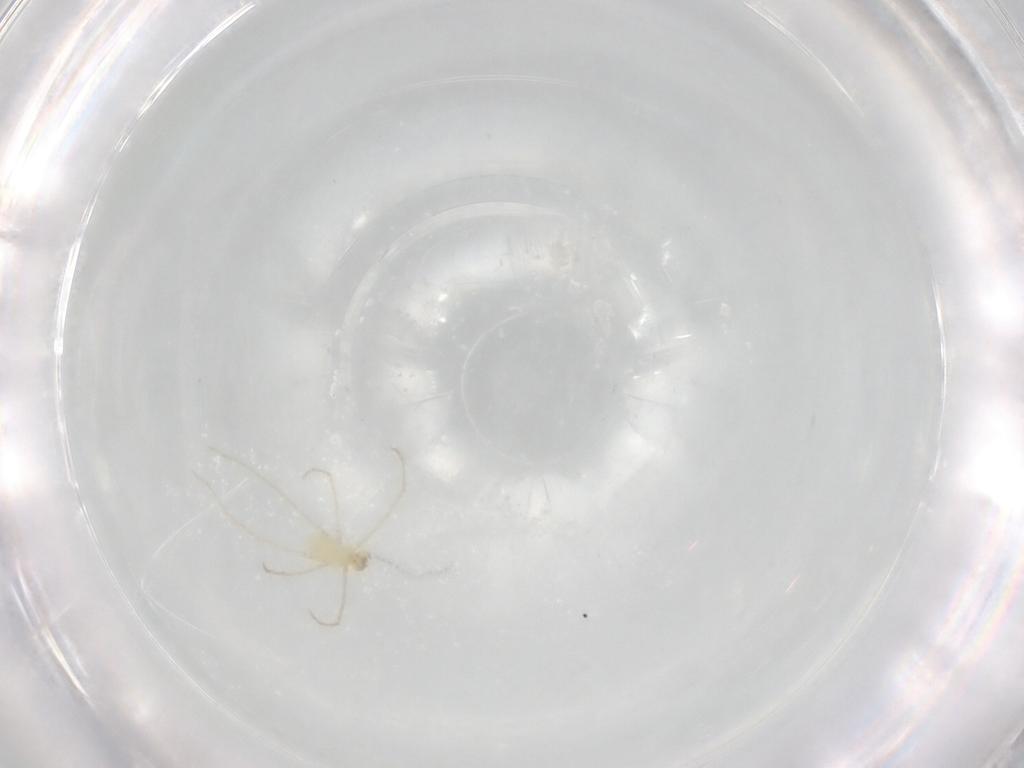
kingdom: Animalia
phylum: Arthropoda
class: Arachnida
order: Trombidiformes
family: Erythraeidae
